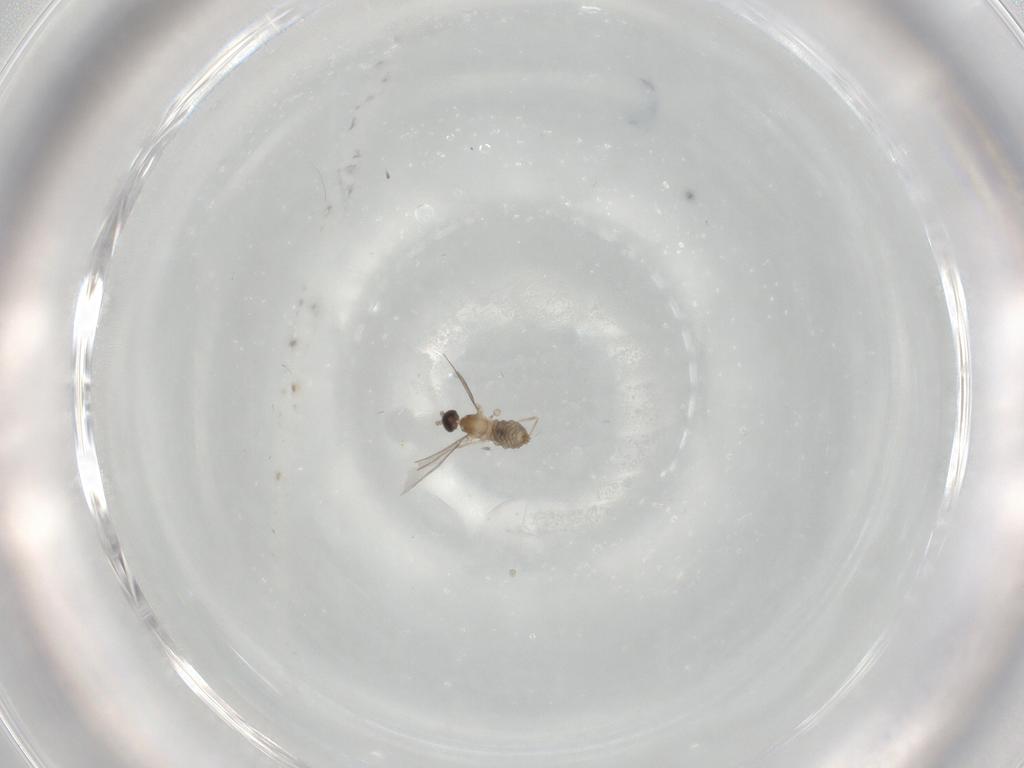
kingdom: Animalia
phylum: Arthropoda
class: Insecta
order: Diptera
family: Cecidomyiidae
